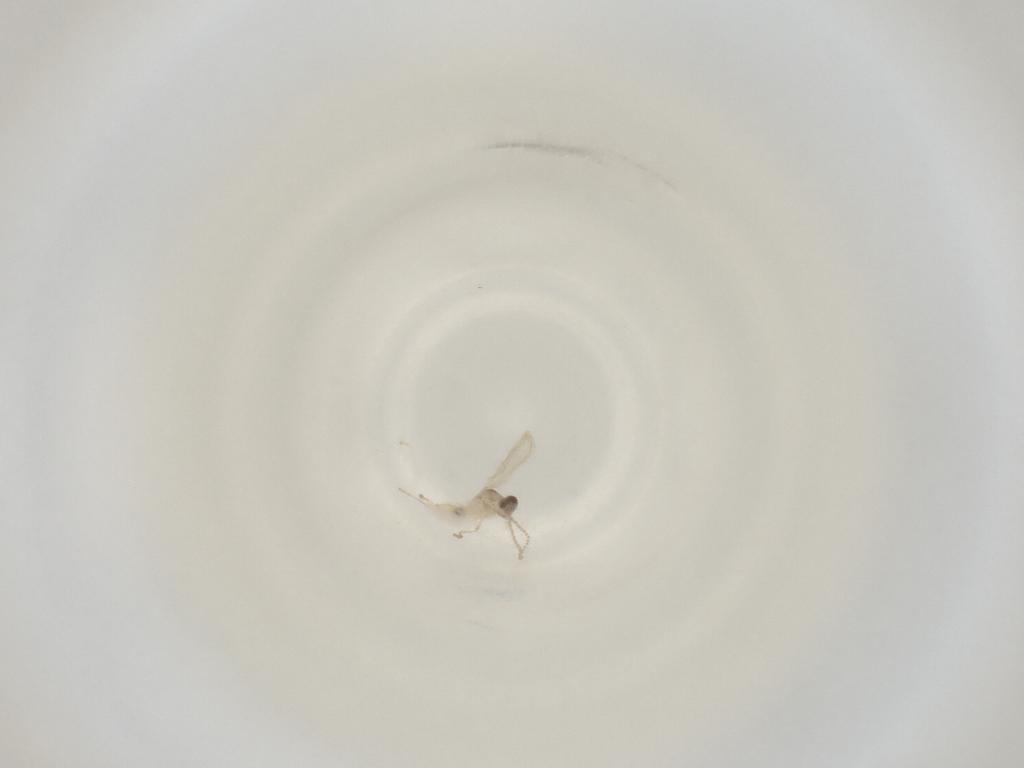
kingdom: Animalia
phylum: Arthropoda
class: Insecta
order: Diptera
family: Cecidomyiidae
